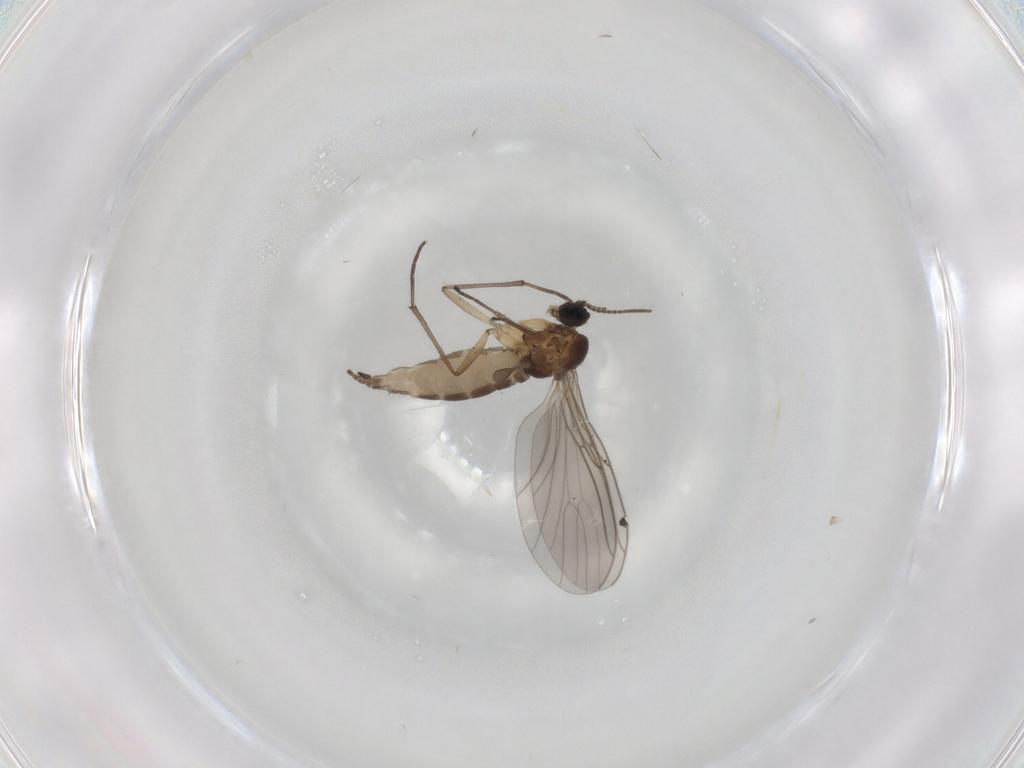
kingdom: Animalia
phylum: Arthropoda
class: Insecta
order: Diptera
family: Sciaridae
